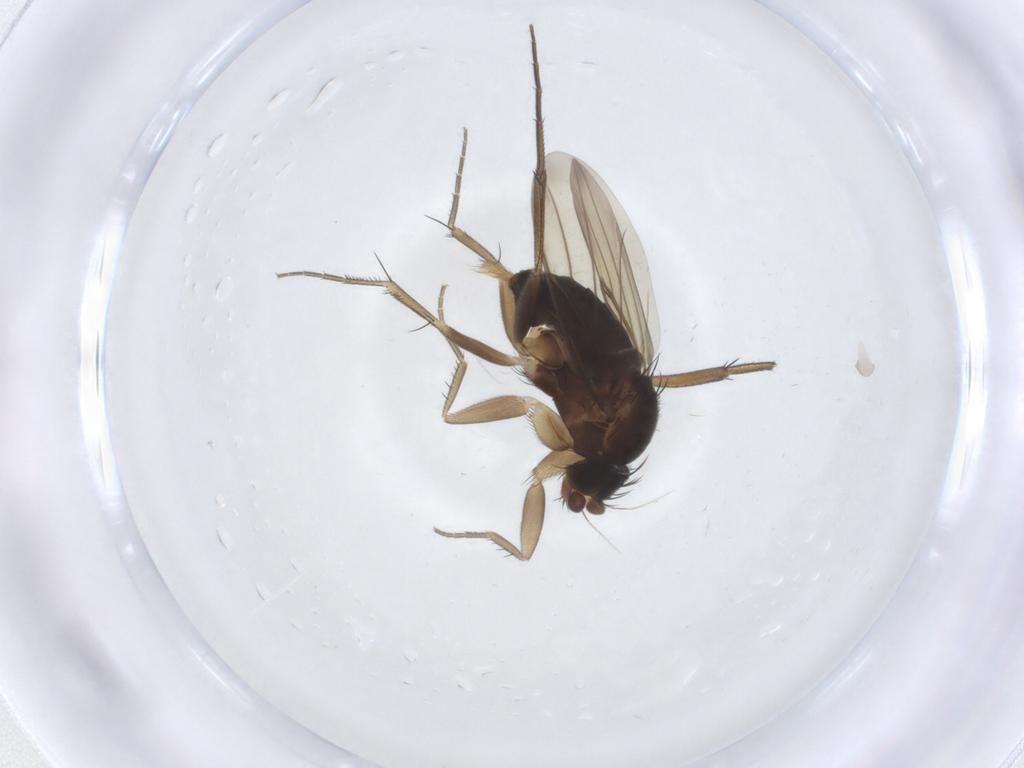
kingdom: Animalia
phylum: Arthropoda
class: Insecta
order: Diptera
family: Phoridae
